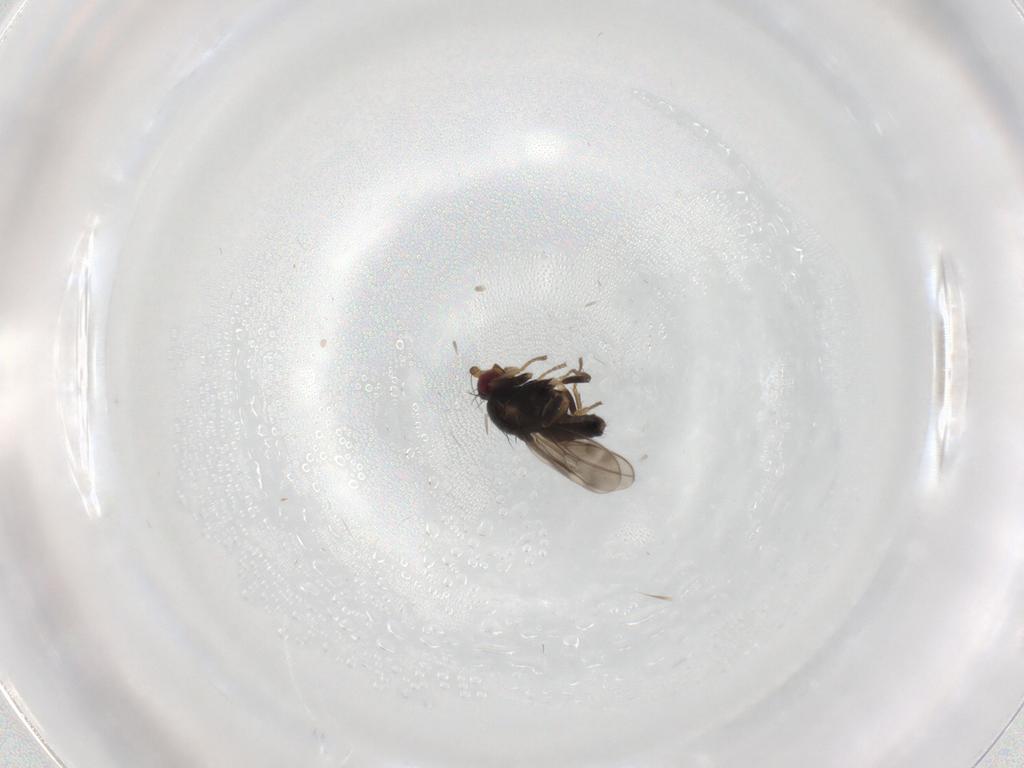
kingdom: Animalia
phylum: Arthropoda
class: Insecta
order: Diptera
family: Sphaeroceridae
